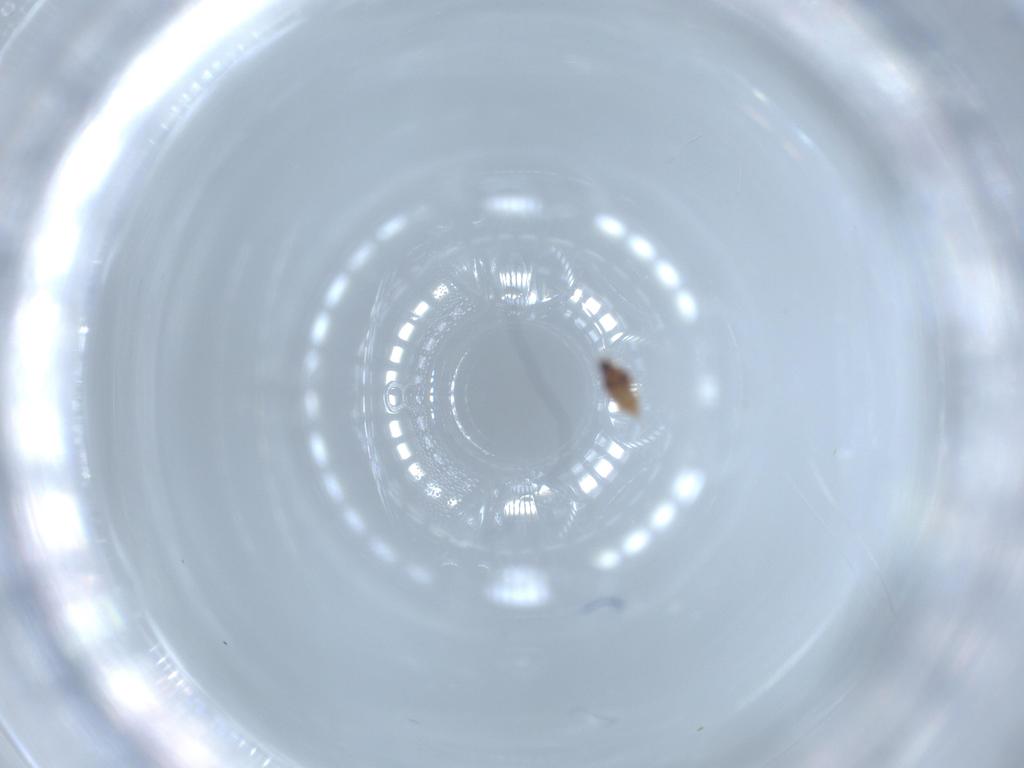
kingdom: Animalia
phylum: Arthropoda
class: Insecta
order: Hemiptera
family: Diaspididae
